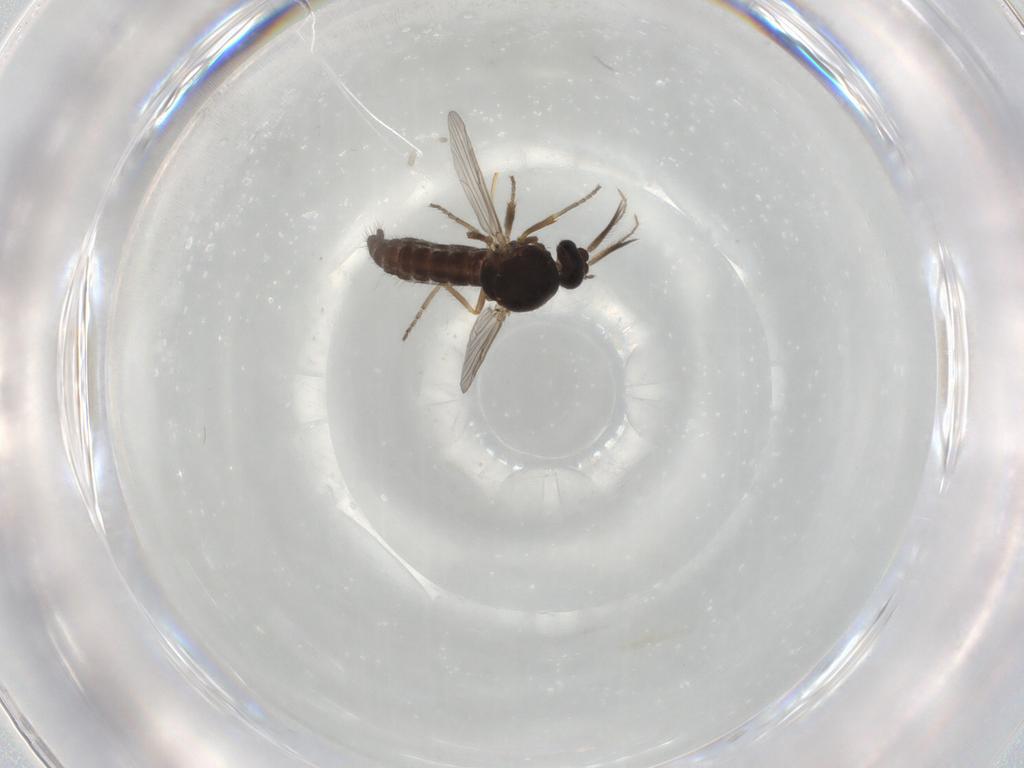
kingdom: Animalia
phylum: Arthropoda
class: Insecta
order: Diptera
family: Ceratopogonidae
